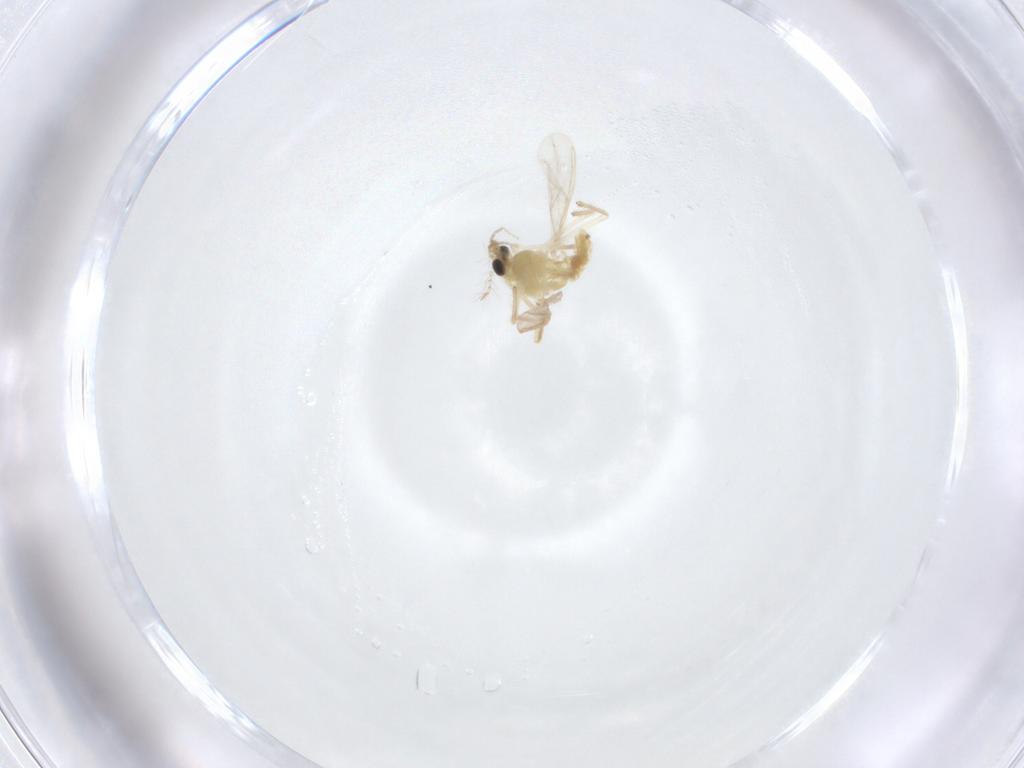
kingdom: Animalia
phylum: Arthropoda
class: Insecta
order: Diptera
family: Chironomidae
